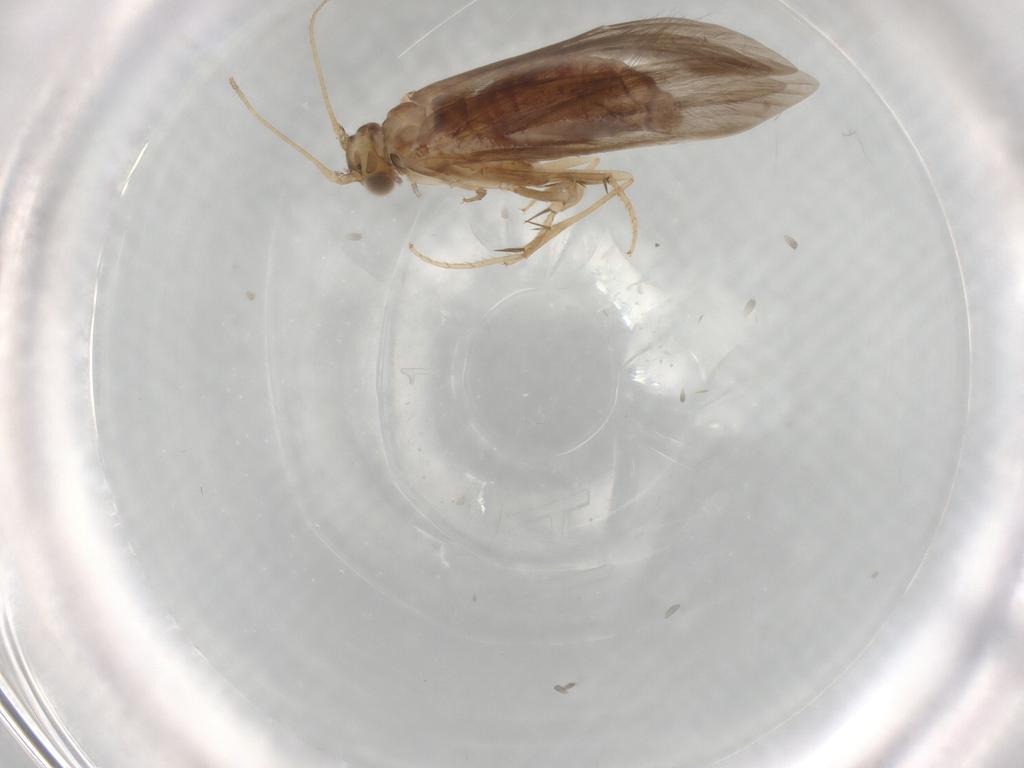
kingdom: Animalia
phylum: Arthropoda
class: Insecta
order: Trichoptera
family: Glossosomatidae
